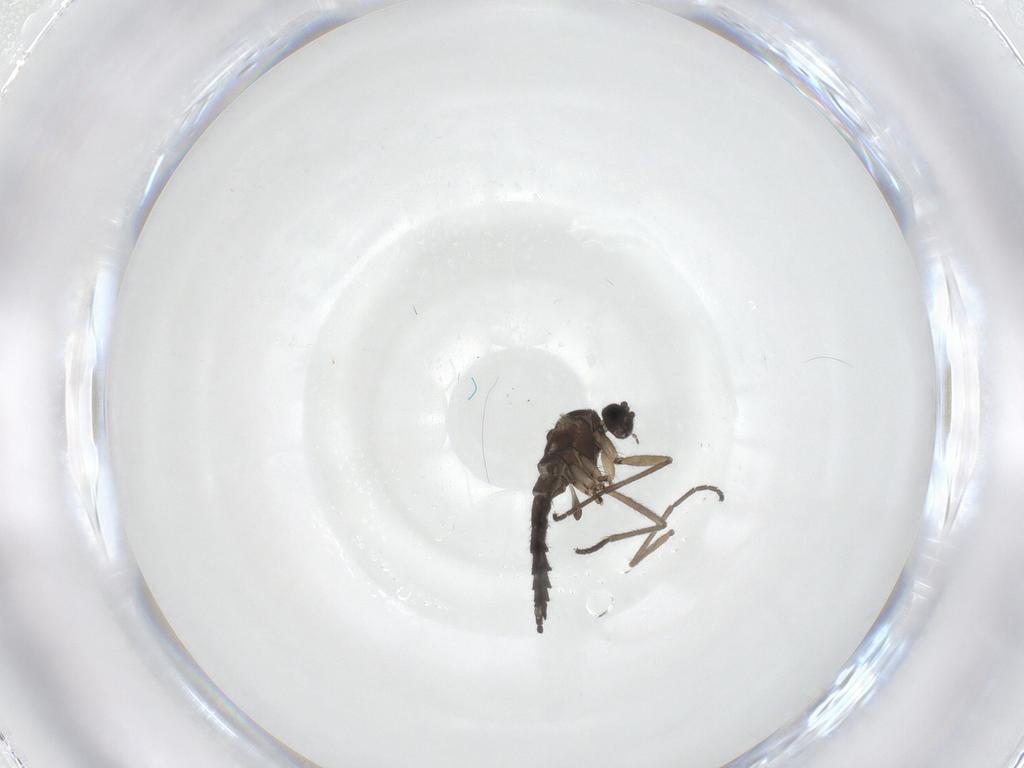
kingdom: Animalia
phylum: Arthropoda
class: Insecta
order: Diptera
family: Sciaridae
